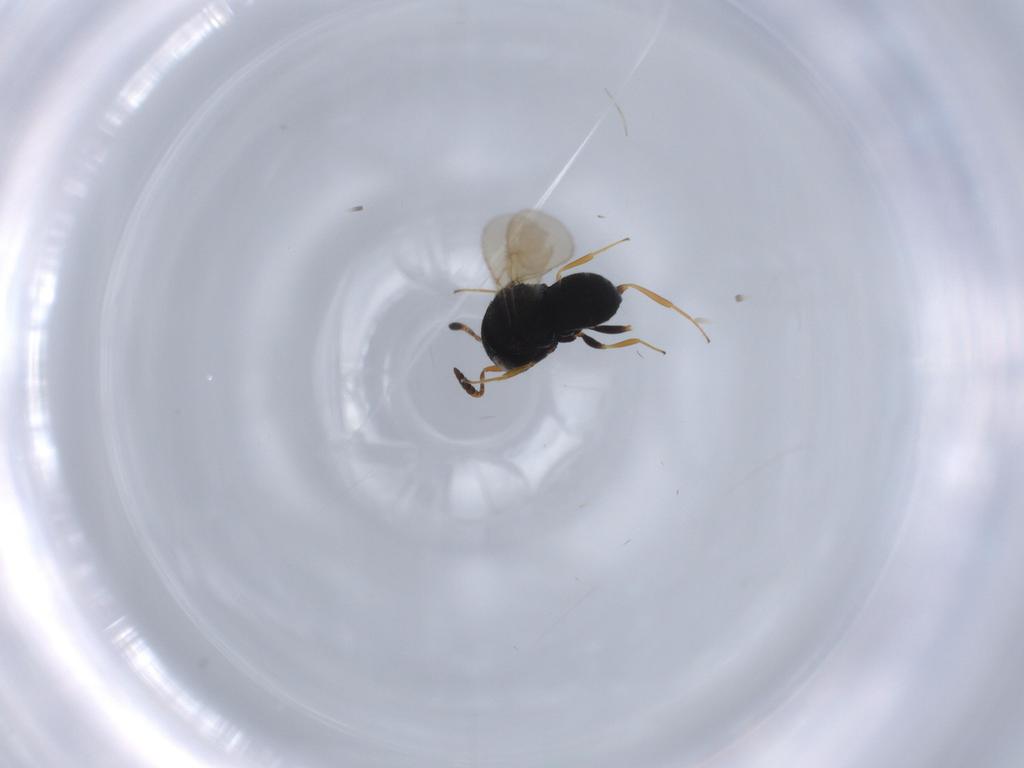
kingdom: Animalia
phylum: Arthropoda
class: Insecta
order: Hymenoptera
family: Scelionidae
